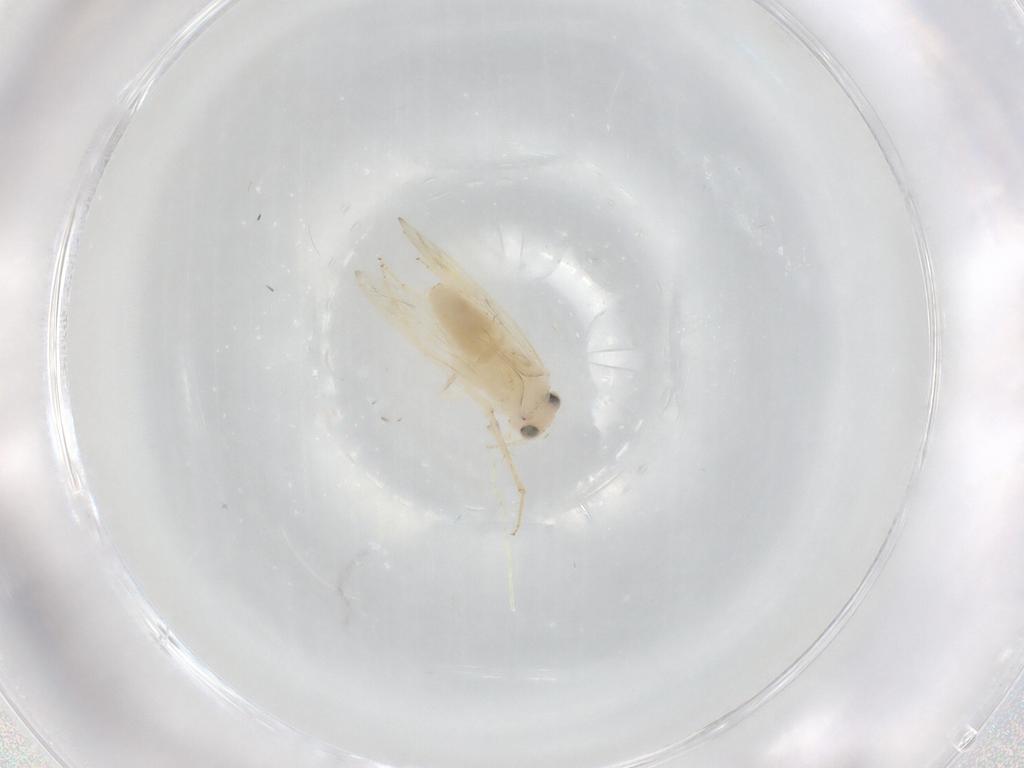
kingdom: Animalia
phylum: Arthropoda
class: Insecta
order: Psocodea
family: Lepidopsocidae
